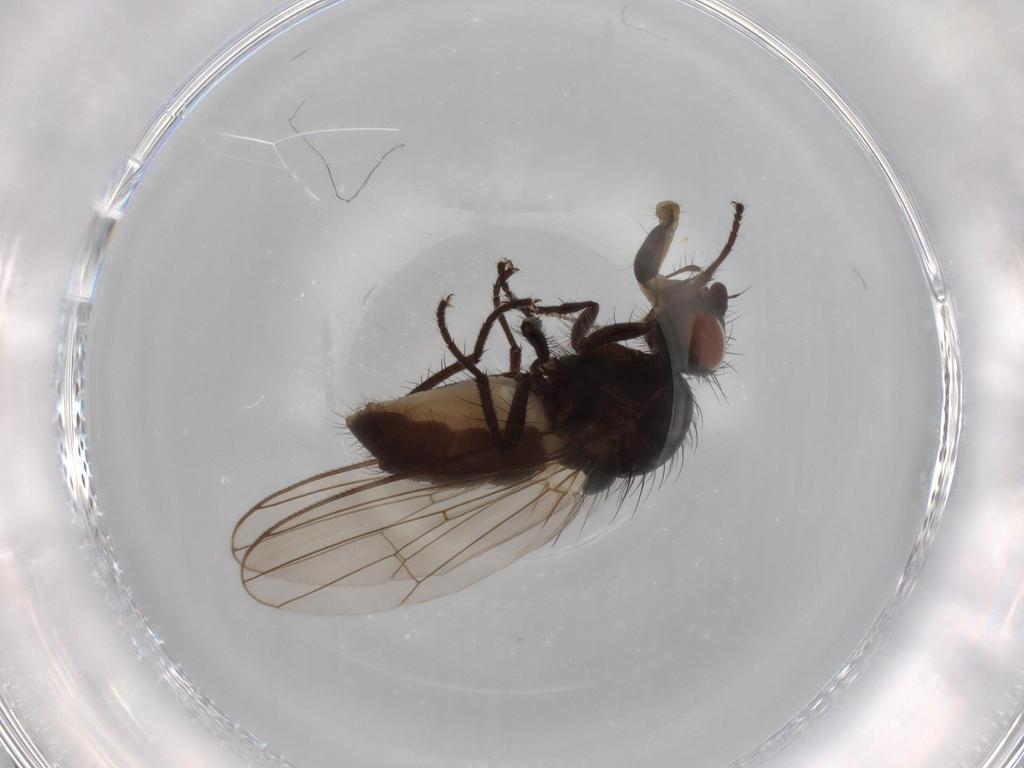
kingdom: Animalia
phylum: Arthropoda
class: Insecta
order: Diptera
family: Anthomyiidae
